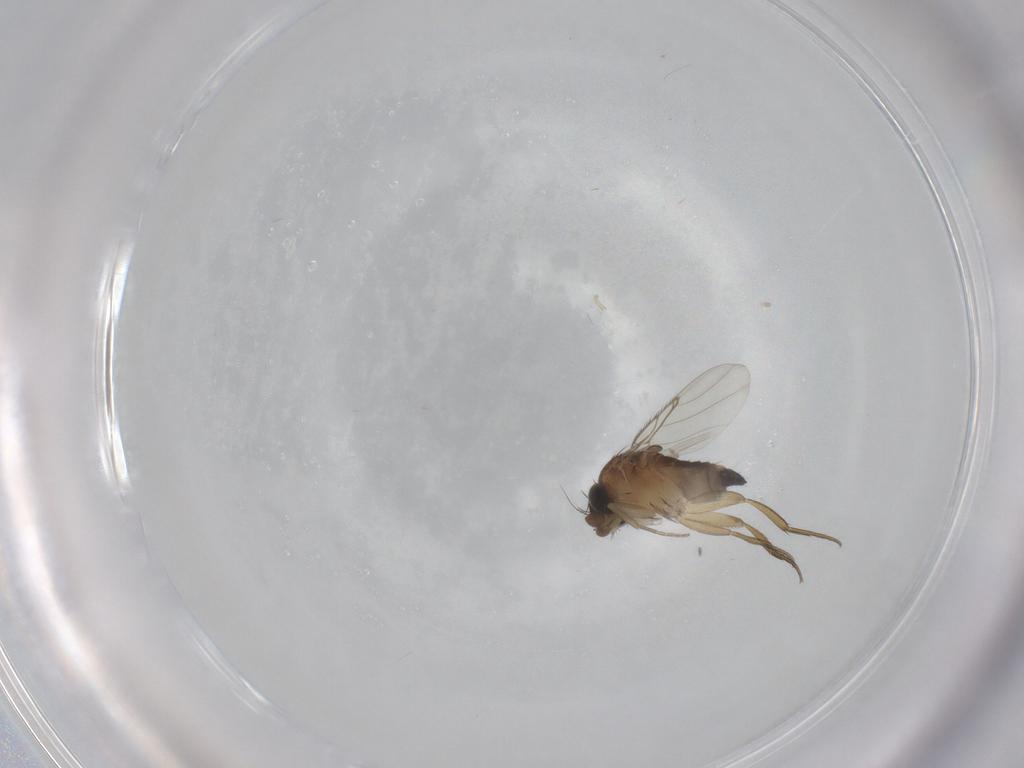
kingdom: Animalia
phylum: Arthropoda
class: Insecta
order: Diptera
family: Phoridae
